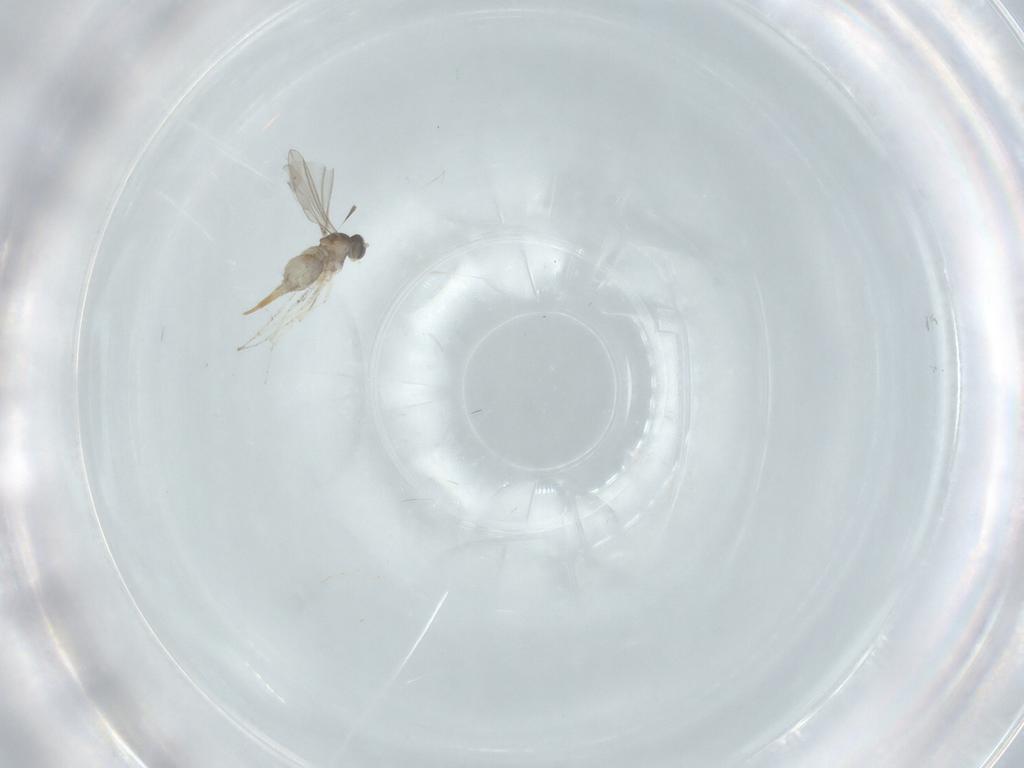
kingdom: Animalia
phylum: Arthropoda
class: Insecta
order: Diptera
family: Cecidomyiidae
